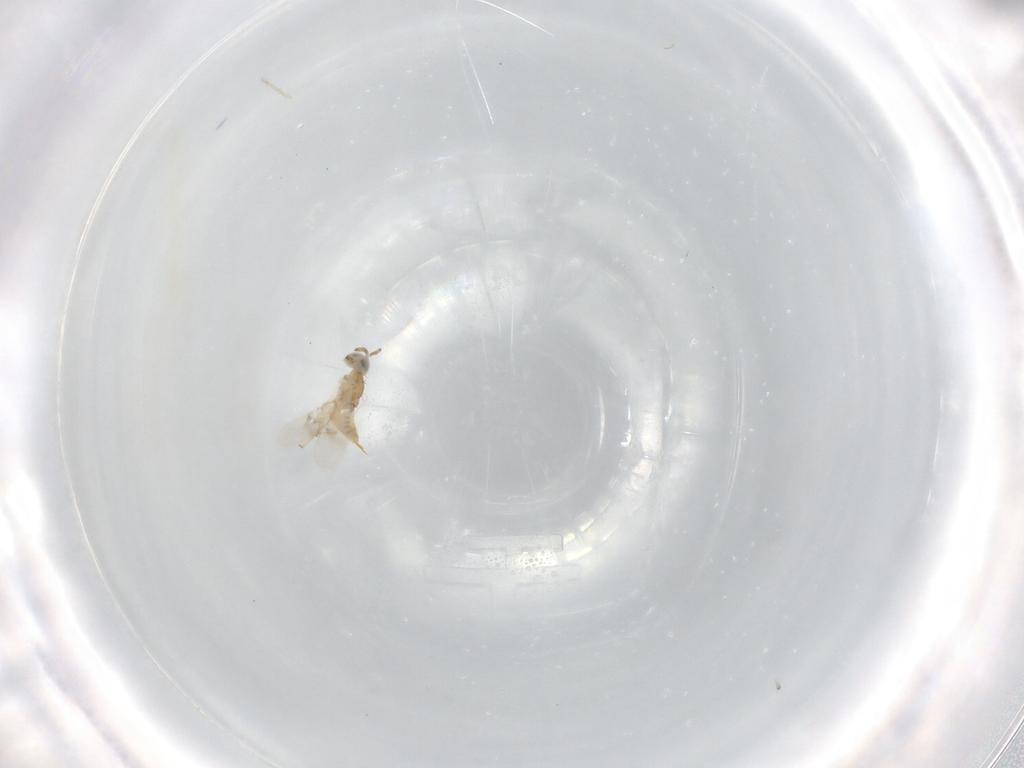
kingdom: Animalia
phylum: Arthropoda
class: Insecta
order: Hymenoptera
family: Aphelinidae
